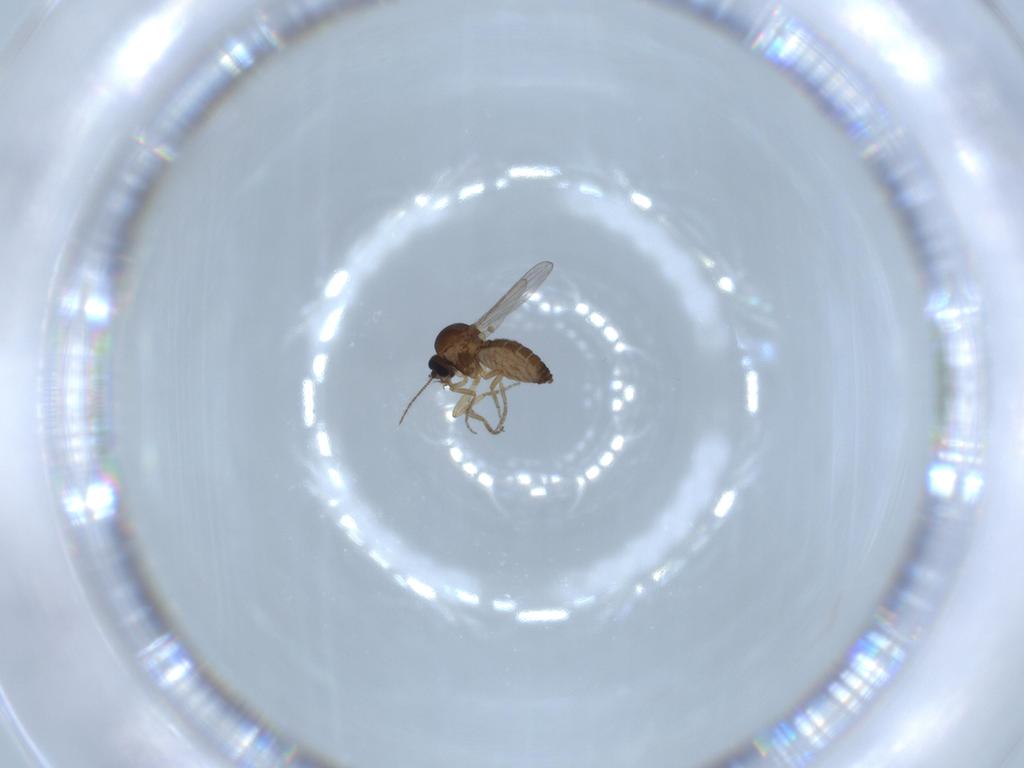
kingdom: Animalia
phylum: Arthropoda
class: Insecta
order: Diptera
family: Ceratopogonidae
